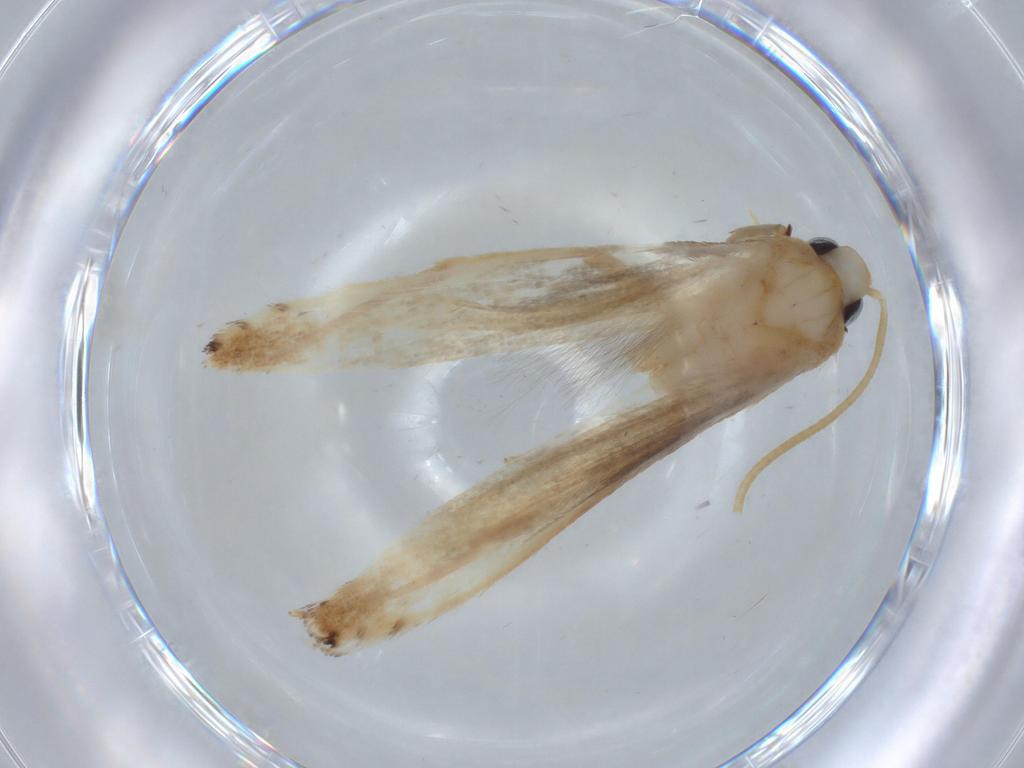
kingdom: Animalia
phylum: Arthropoda
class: Insecta
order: Lepidoptera
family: Coleophoridae
